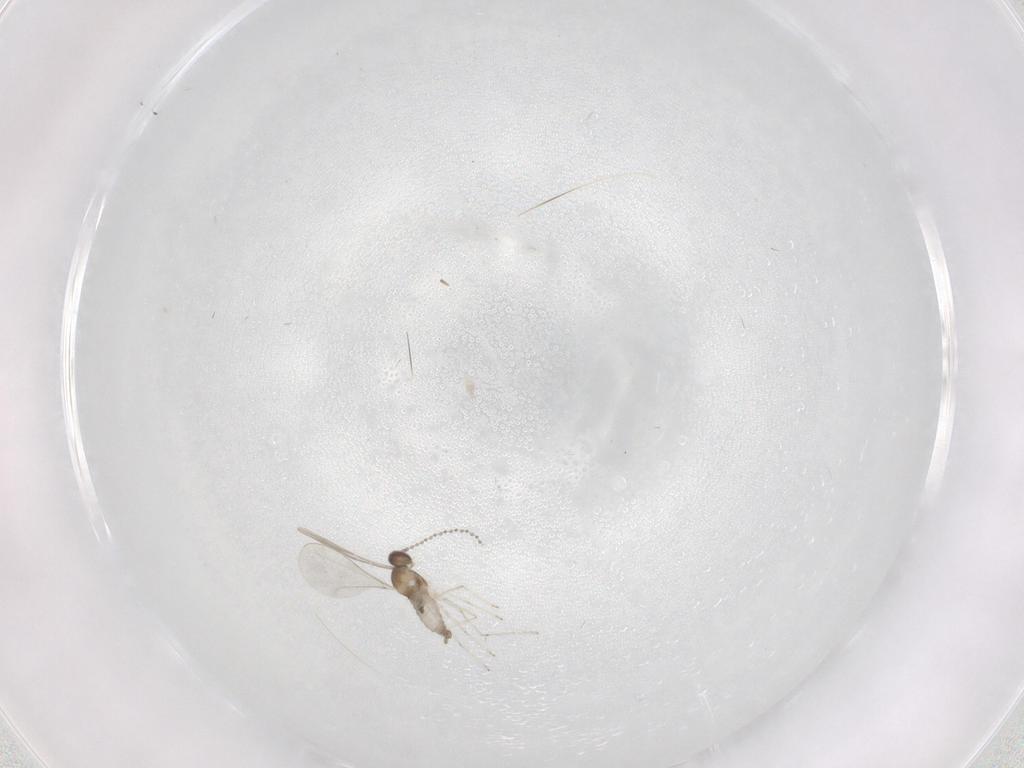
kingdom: Animalia
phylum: Arthropoda
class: Insecta
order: Diptera
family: Cecidomyiidae
